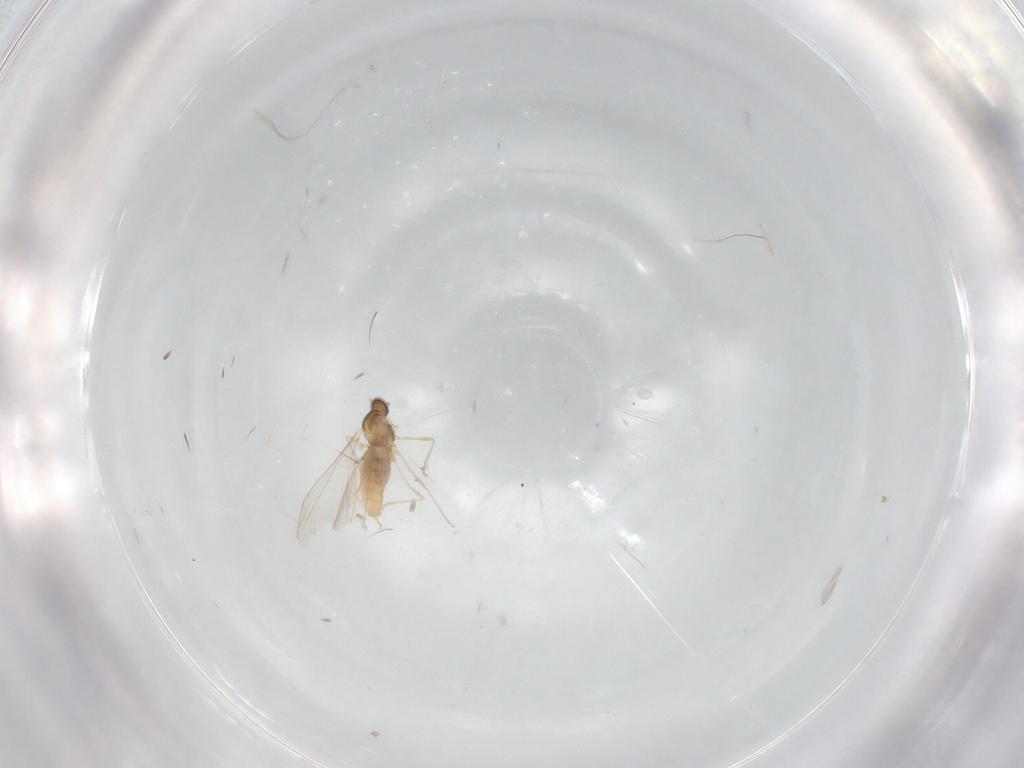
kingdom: Animalia
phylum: Arthropoda
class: Insecta
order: Diptera
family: Cecidomyiidae
